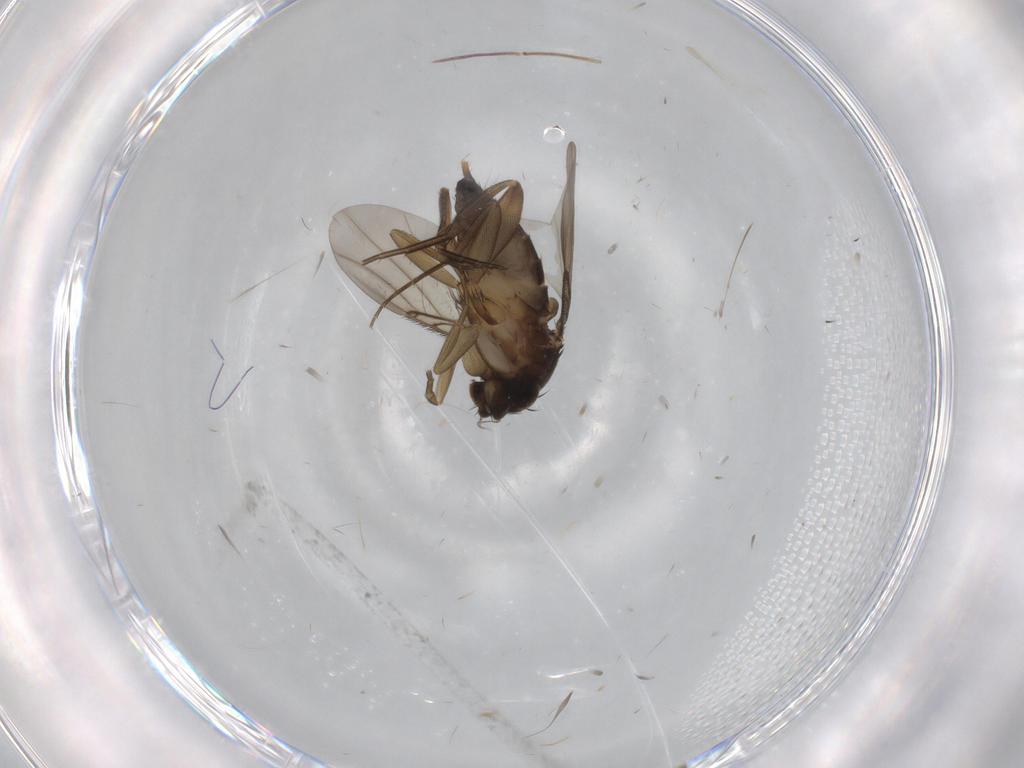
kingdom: Animalia
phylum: Arthropoda
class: Insecta
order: Diptera
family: Phoridae
